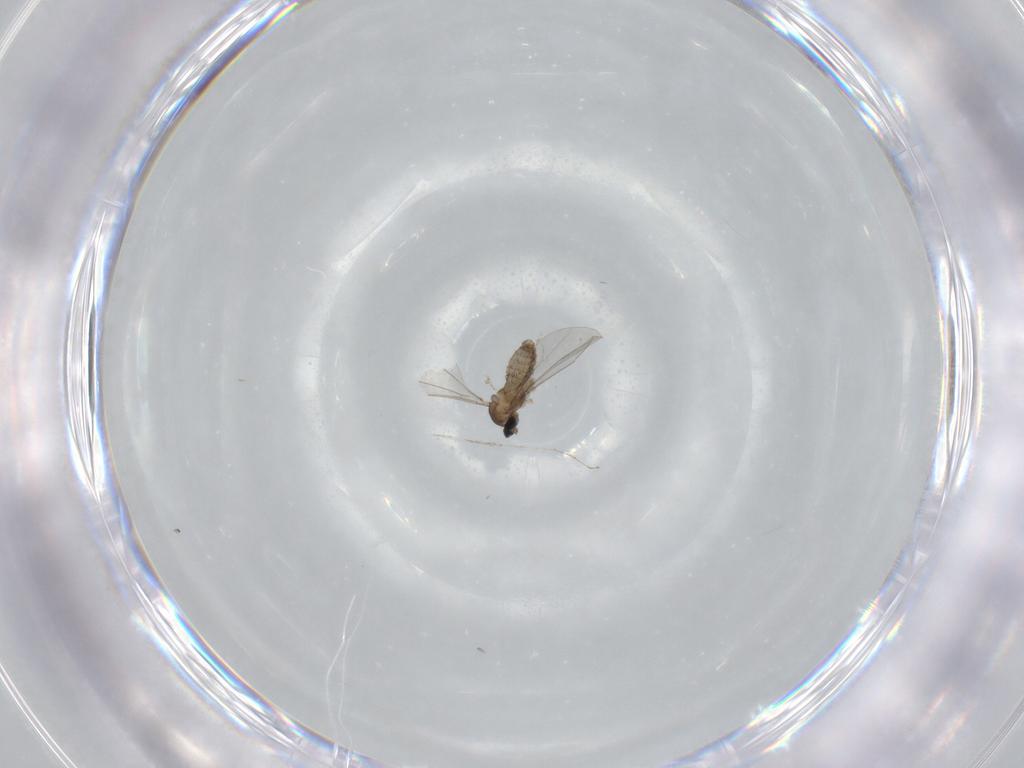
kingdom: Animalia
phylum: Arthropoda
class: Insecta
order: Diptera
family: Cecidomyiidae
